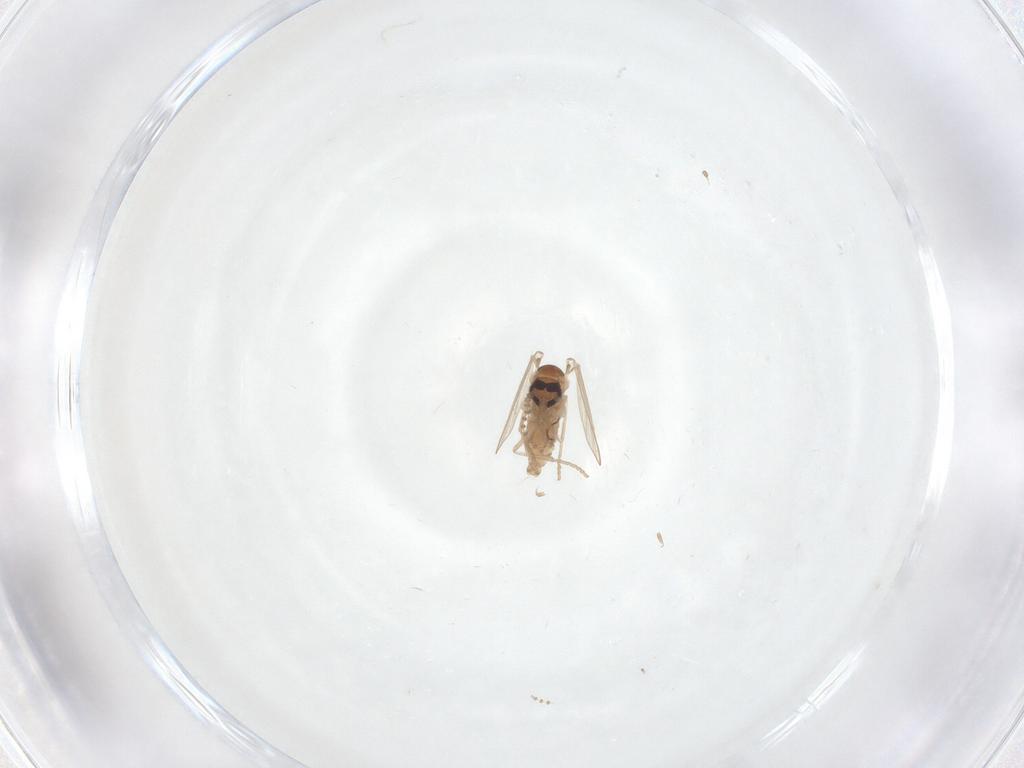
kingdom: Animalia
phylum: Arthropoda
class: Insecta
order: Diptera
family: Psychodidae
